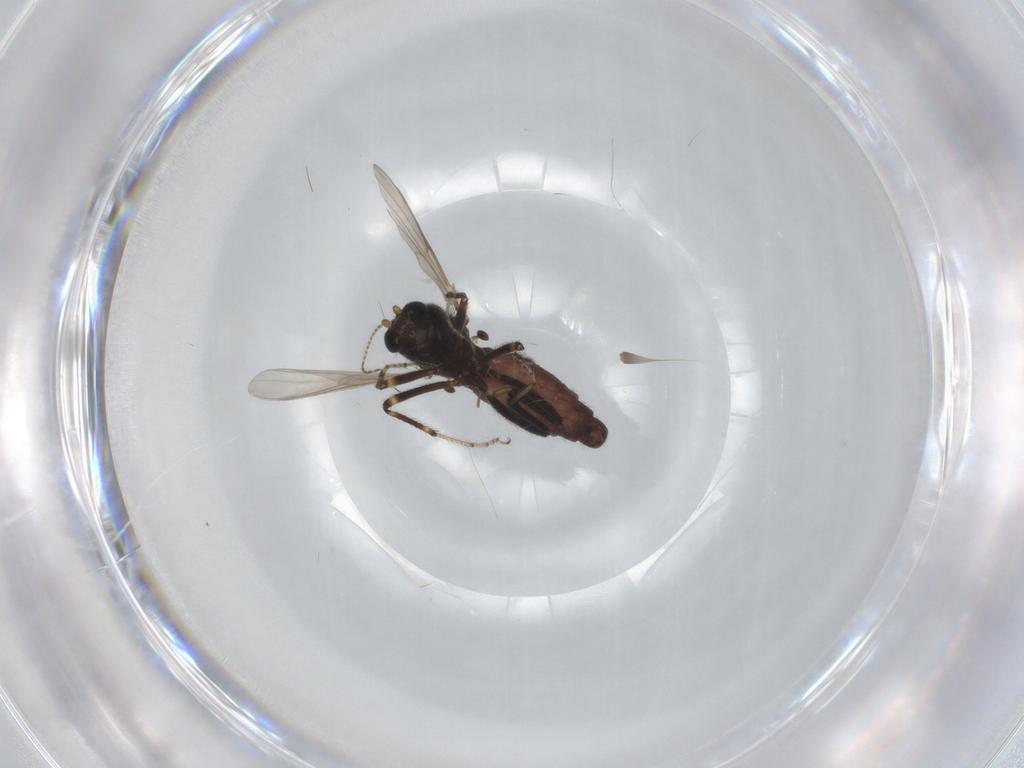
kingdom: Animalia
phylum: Arthropoda
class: Insecta
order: Diptera
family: Ceratopogonidae
